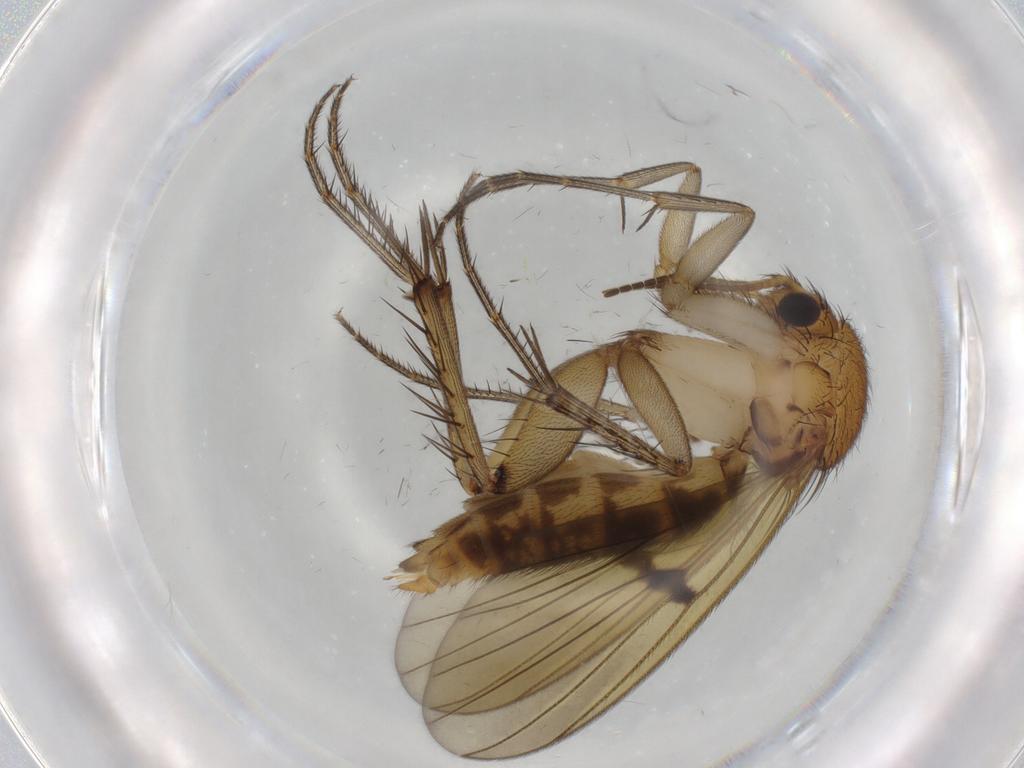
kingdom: Animalia
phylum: Arthropoda
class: Insecta
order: Diptera
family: Mycetophilidae
